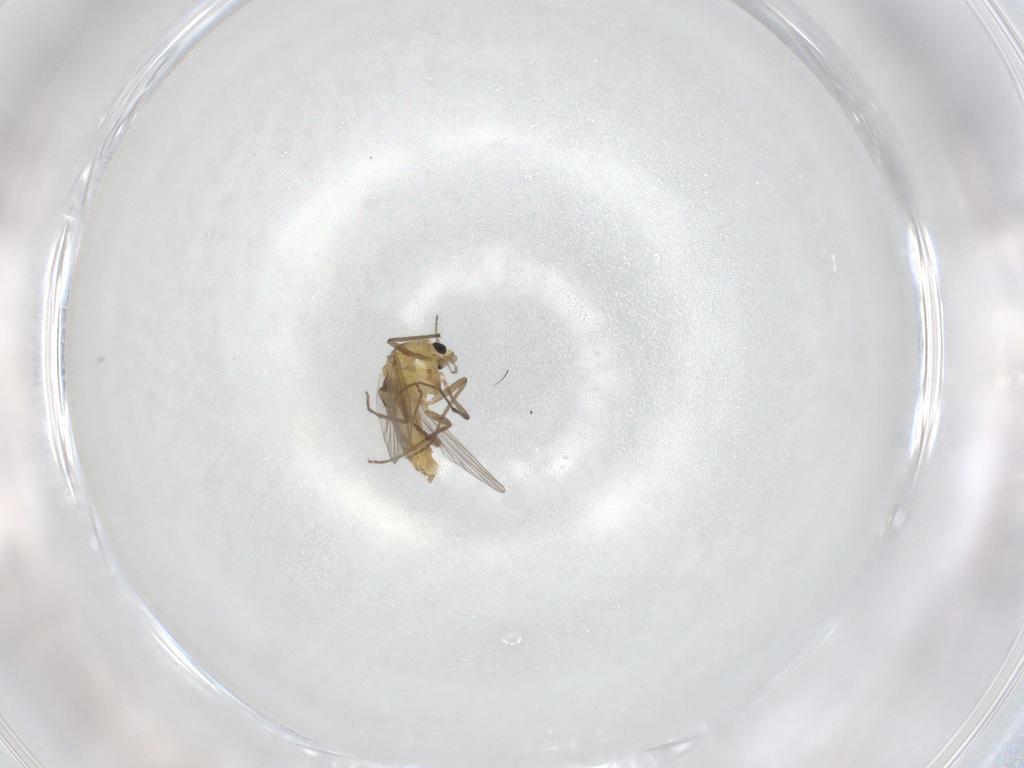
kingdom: Animalia
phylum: Arthropoda
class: Insecta
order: Diptera
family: Chironomidae
